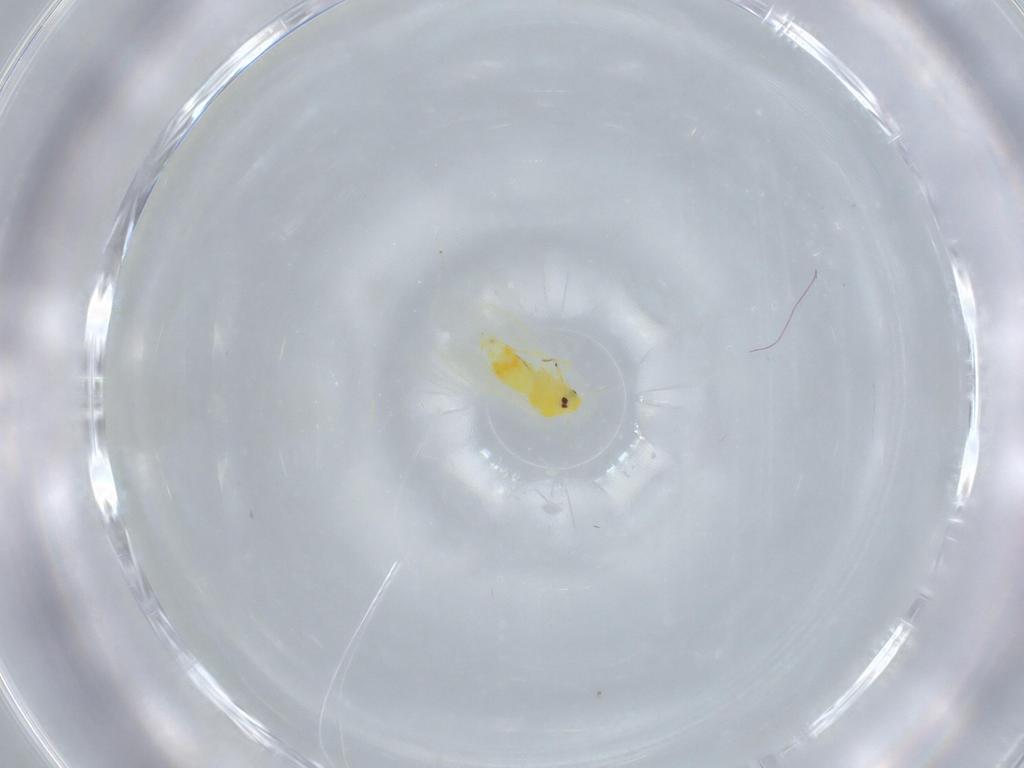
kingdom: Animalia
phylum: Arthropoda
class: Insecta
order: Hemiptera
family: Aleyrodidae
